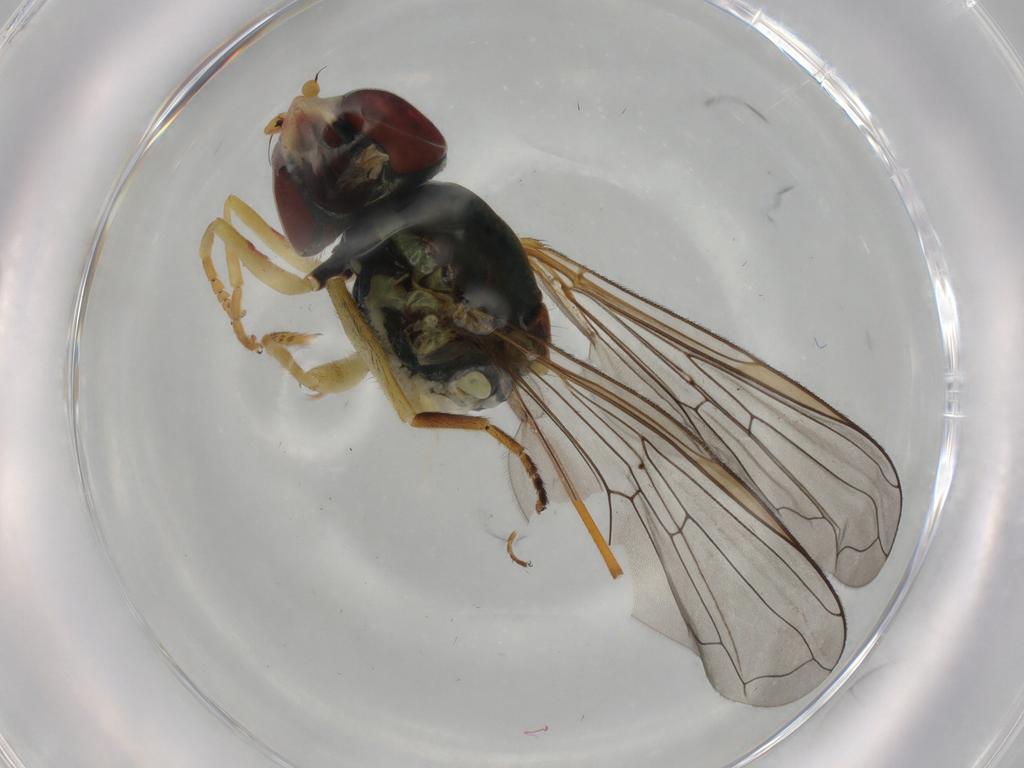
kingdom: Animalia
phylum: Arthropoda
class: Insecta
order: Diptera
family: Syrphidae
